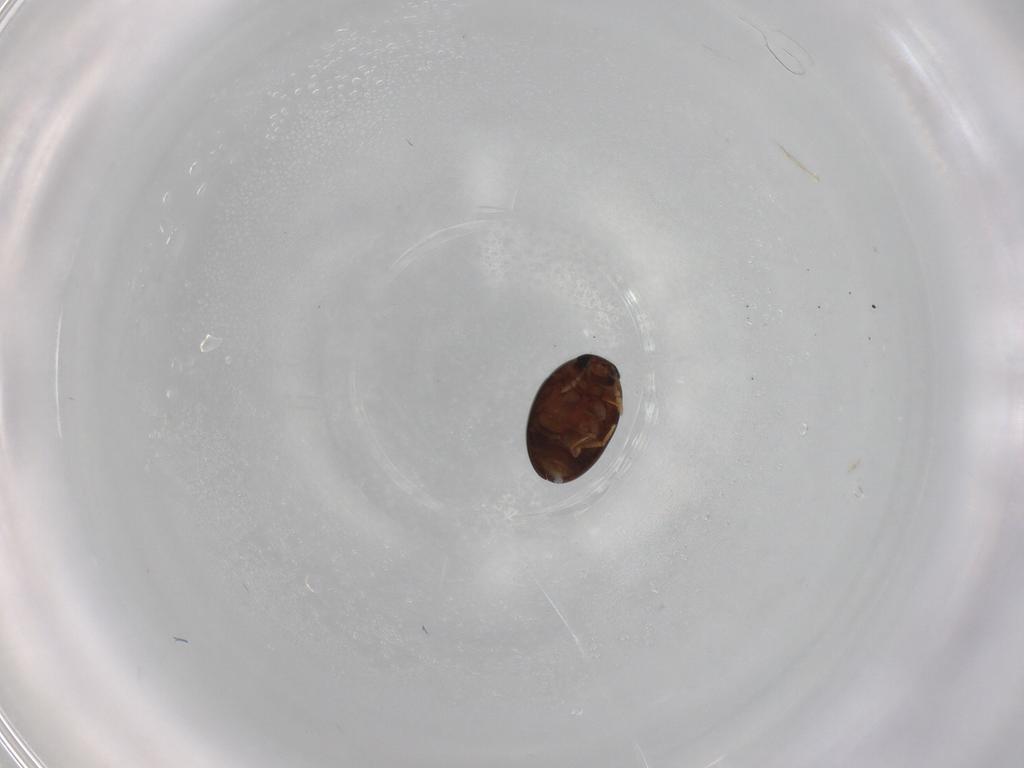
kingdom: Animalia
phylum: Arthropoda
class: Insecta
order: Coleoptera
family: Phalacridae
